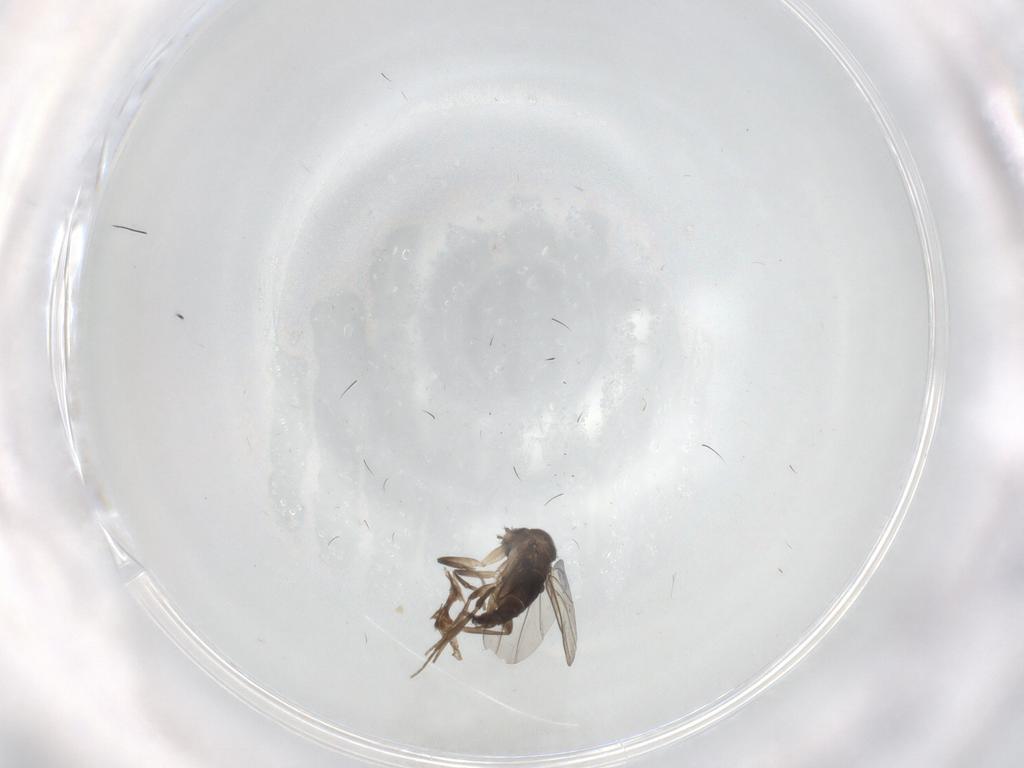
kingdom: Animalia
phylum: Arthropoda
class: Insecta
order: Diptera
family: Phoridae
